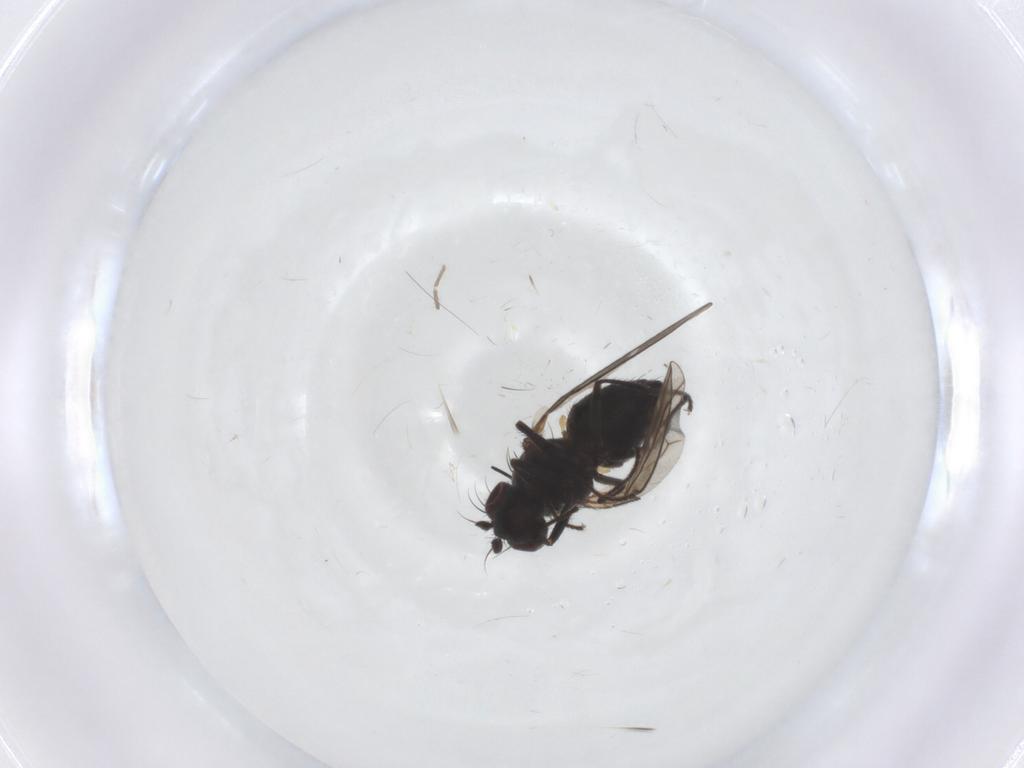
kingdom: Animalia
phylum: Arthropoda
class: Insecta
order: Diptera
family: Ephydridae
